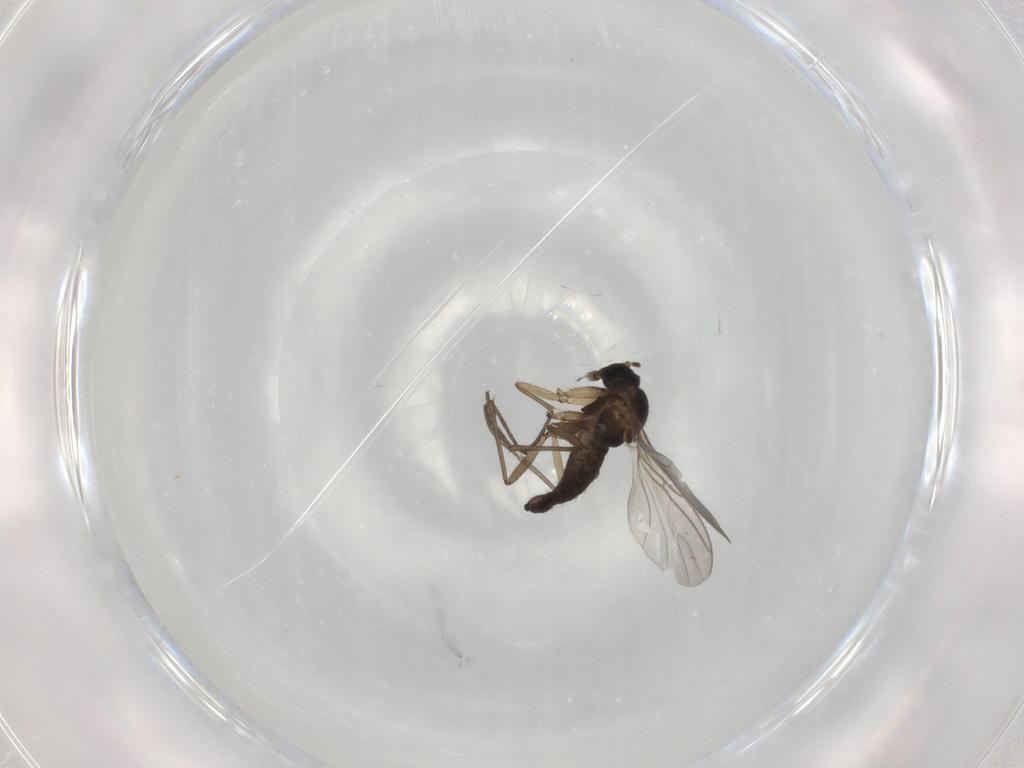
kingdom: Animalia
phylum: Arthropoda
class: Insecta
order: Diptera
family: Sciaridae
